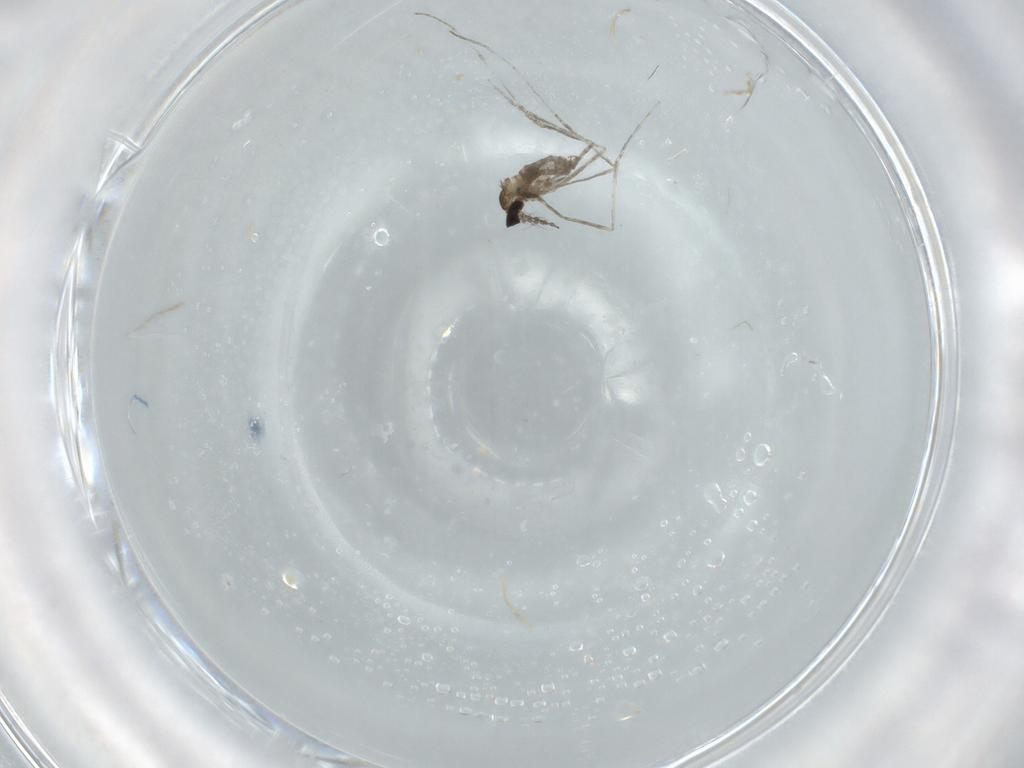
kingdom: Animalia
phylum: Arthropoda
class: Insecta
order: Diptera
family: Cecidomyiidae
